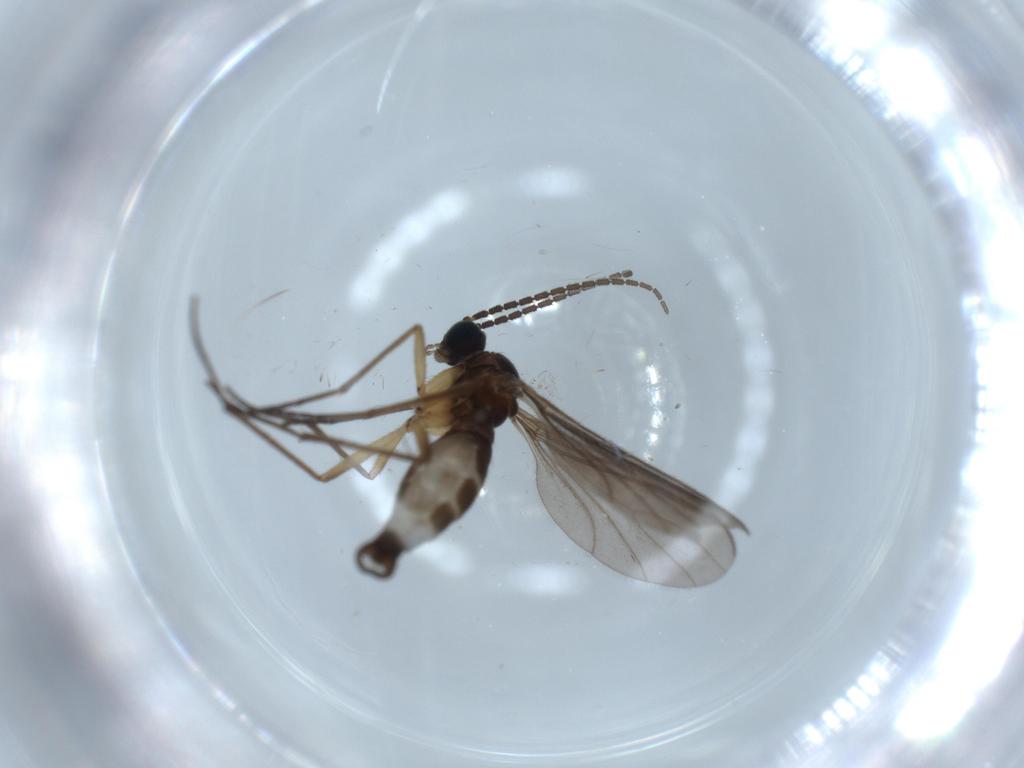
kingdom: Animalia
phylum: Arthropoda
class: Insecta
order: Diptera
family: Sciaridae
